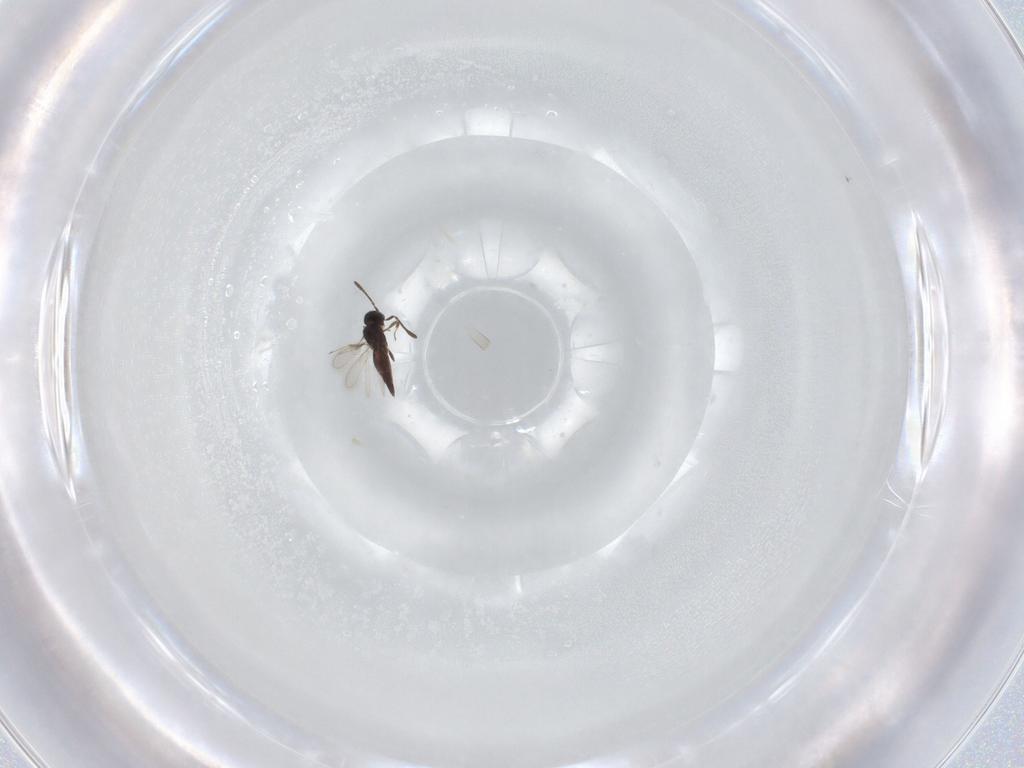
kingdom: Animalia
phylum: Arthropoda
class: Insecta
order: Hymenoptera
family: Scelionidae
